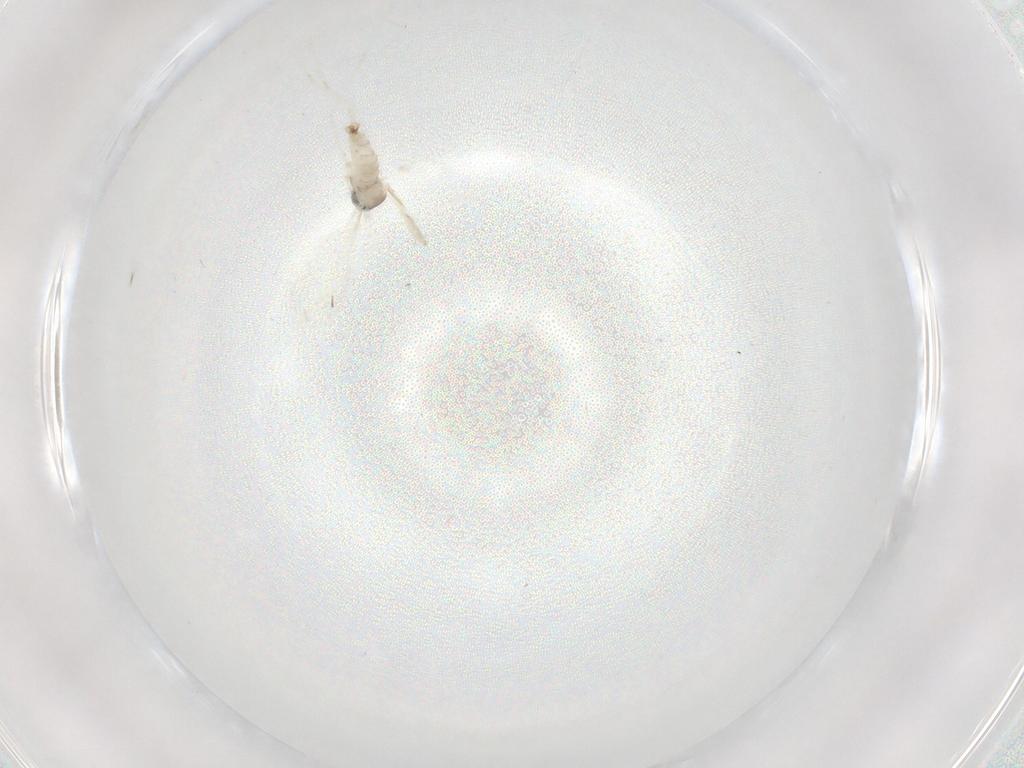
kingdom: Animalia
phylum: Arthropoda
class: Insecta
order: Diptera
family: Cecidomyiidae
